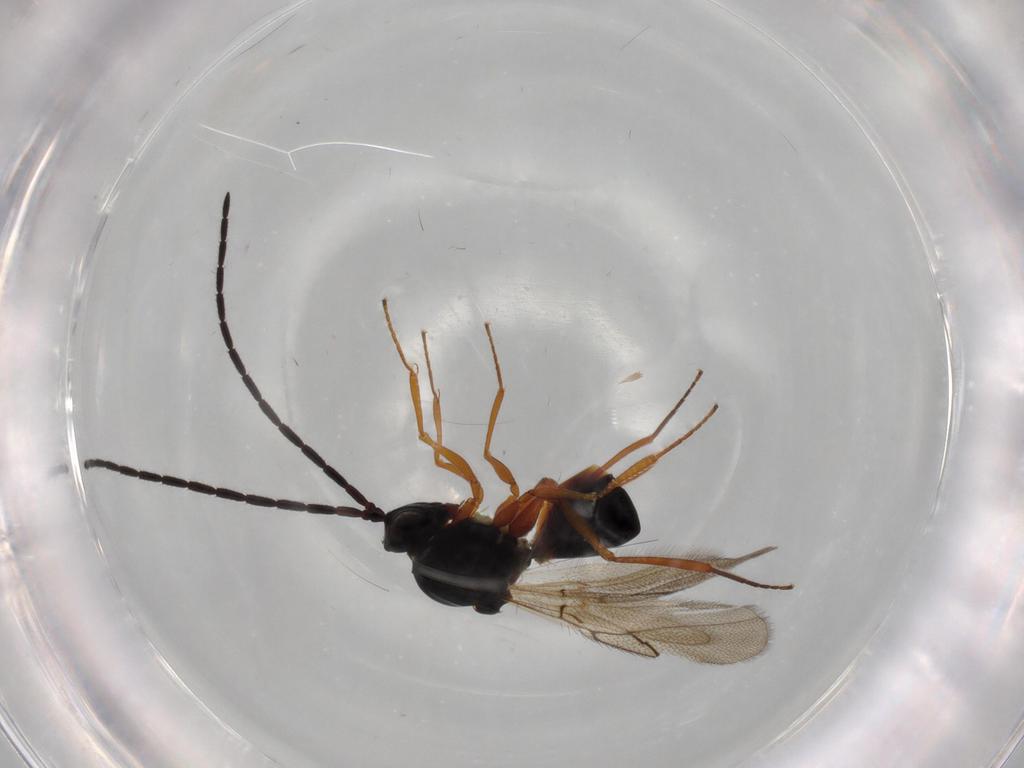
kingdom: Animalia
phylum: Arthropoda
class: Insecta
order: Hymenoptera
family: Figitidae
